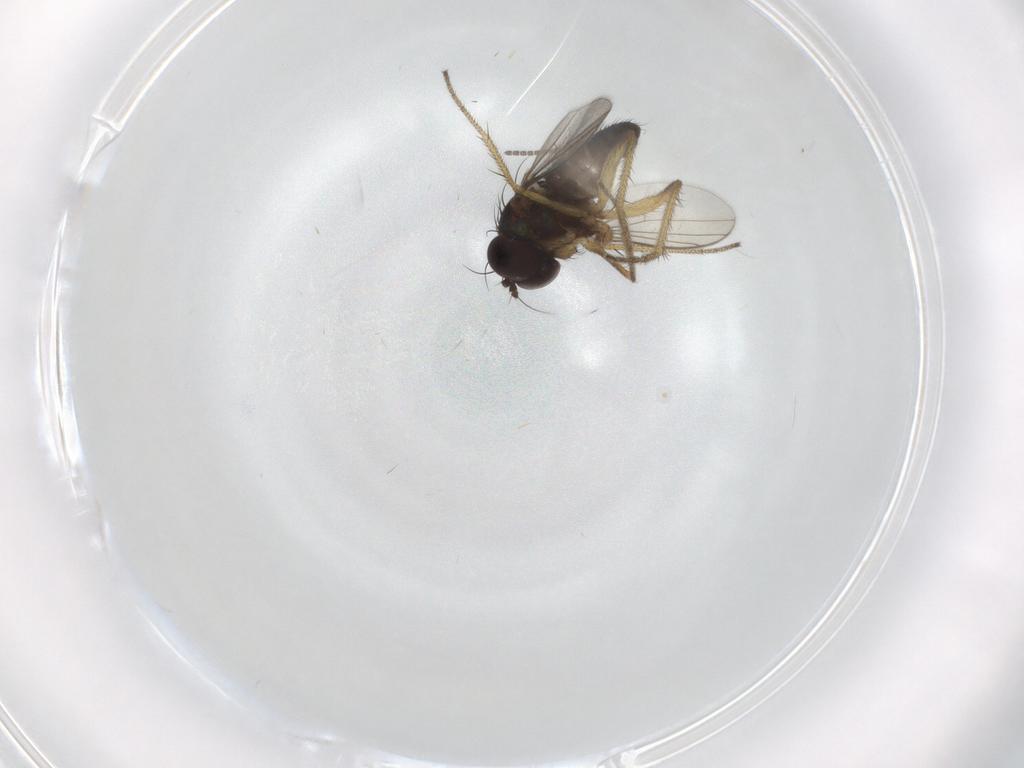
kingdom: Animalia
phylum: Arthropoda
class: Insecta
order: Diptera
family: Sciaridae
